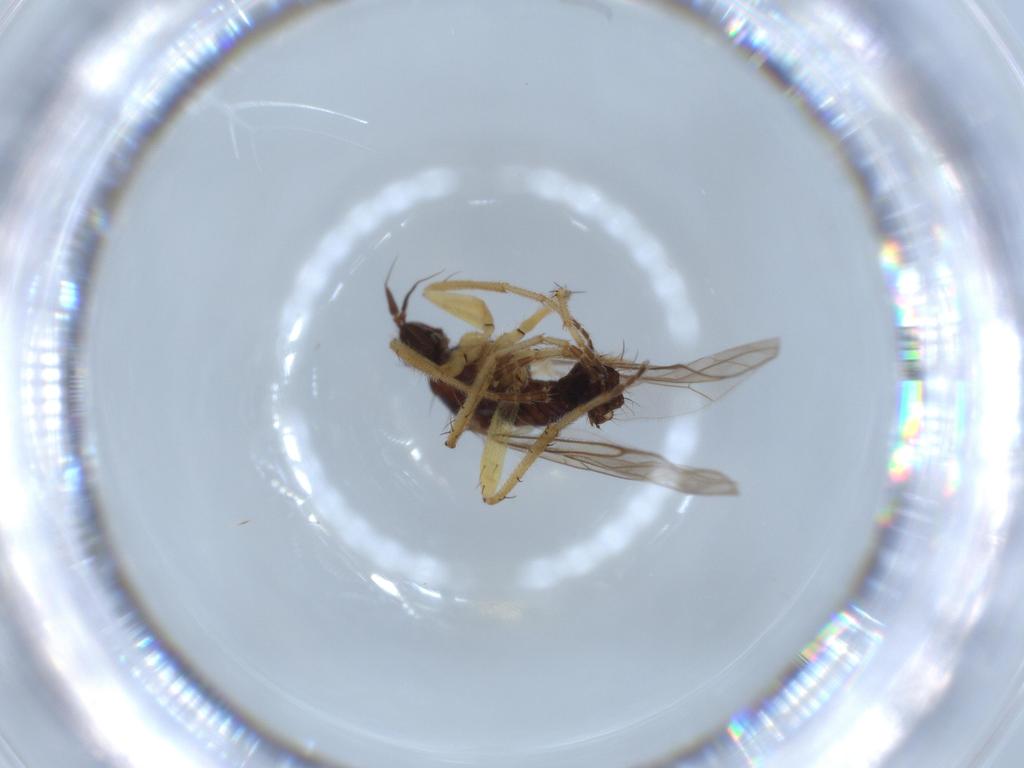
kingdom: Animalia
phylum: Arthropoda
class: Insecta
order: Diptera
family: Hybotidae
